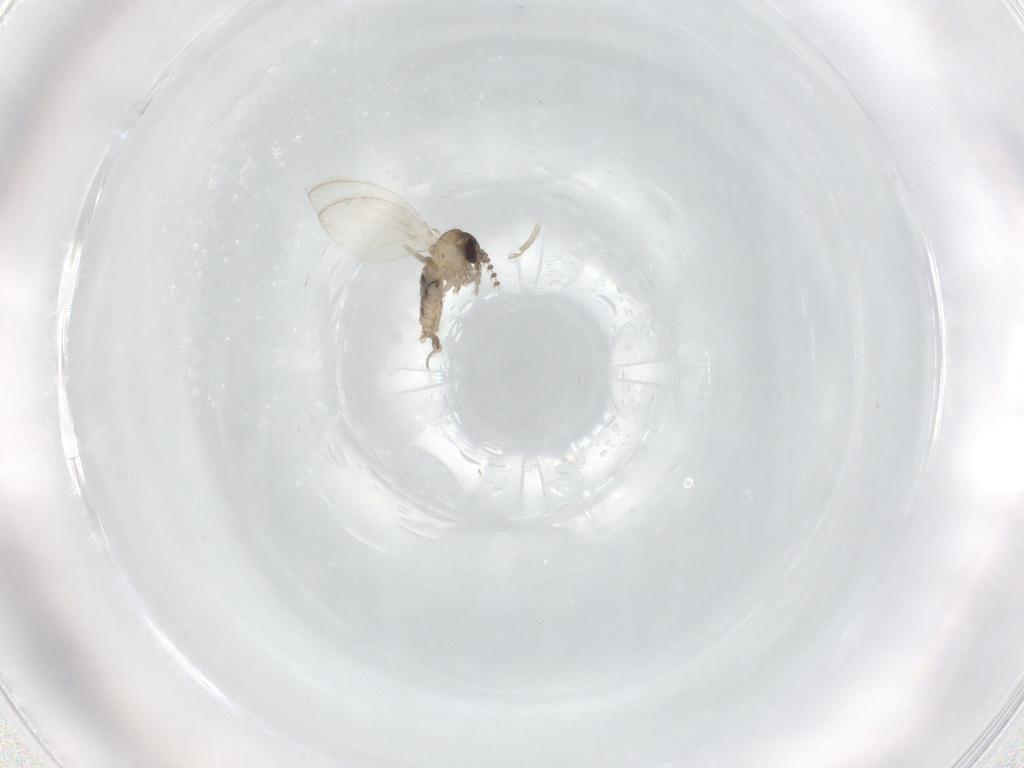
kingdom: Animalia
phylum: Arthropoda
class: Insecta
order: Diptera
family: Psychodidae
